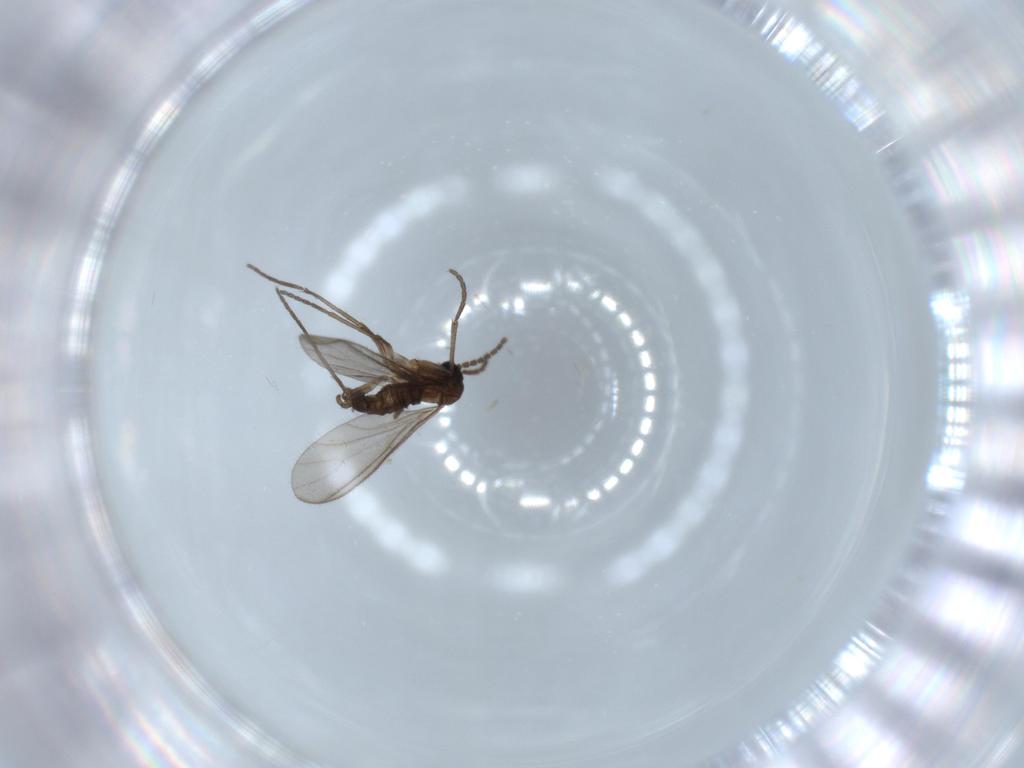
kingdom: Animalia
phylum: Arthropoda
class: Insecta
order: Diptera
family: Sciaridae
